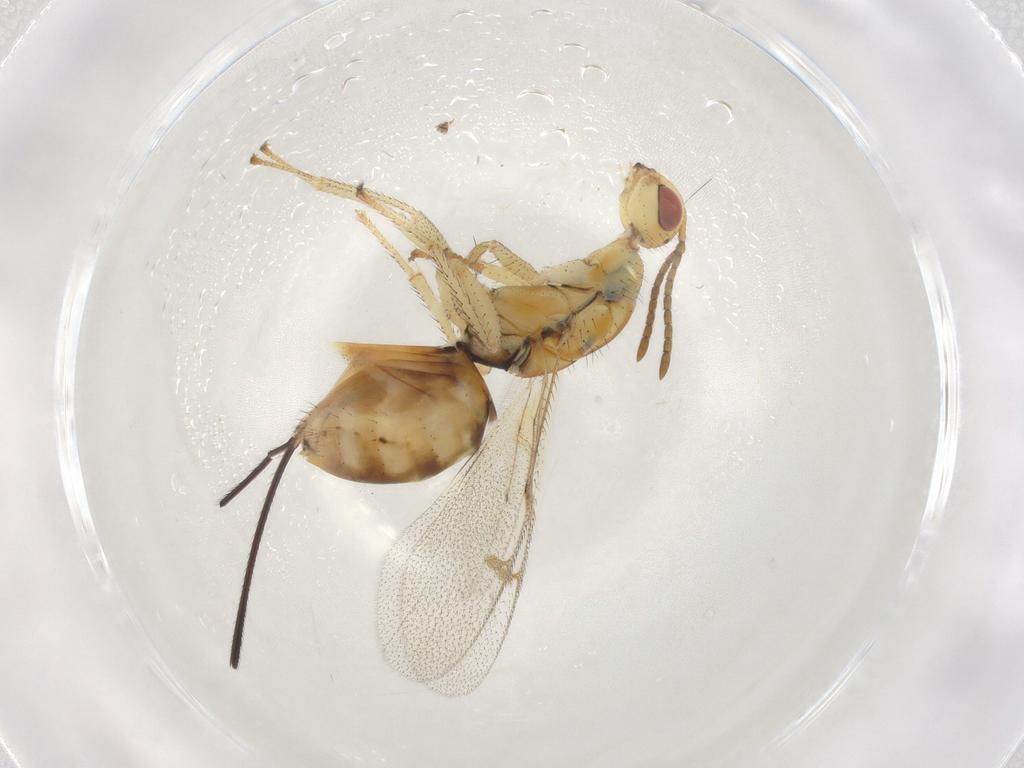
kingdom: Animalia
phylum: Arthropoda
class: Insecta
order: Hymenoptera
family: Megastigmidae
